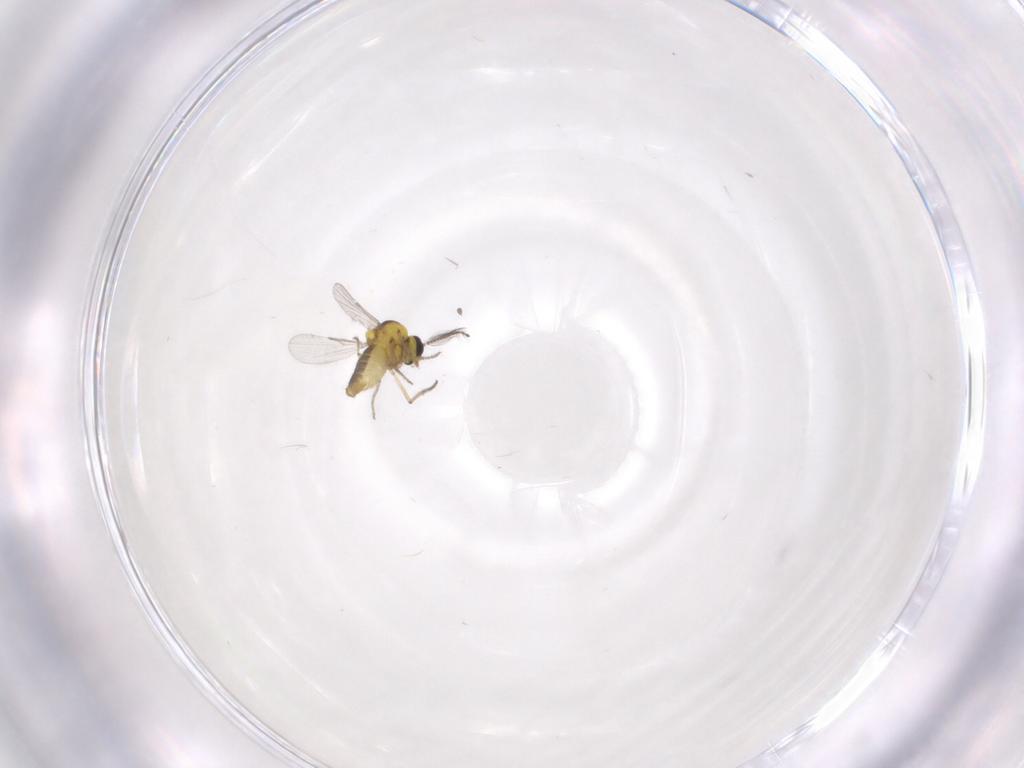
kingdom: Animalia
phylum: Arthropoda
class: Insecta
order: Diptera
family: Ceratopogonidae
